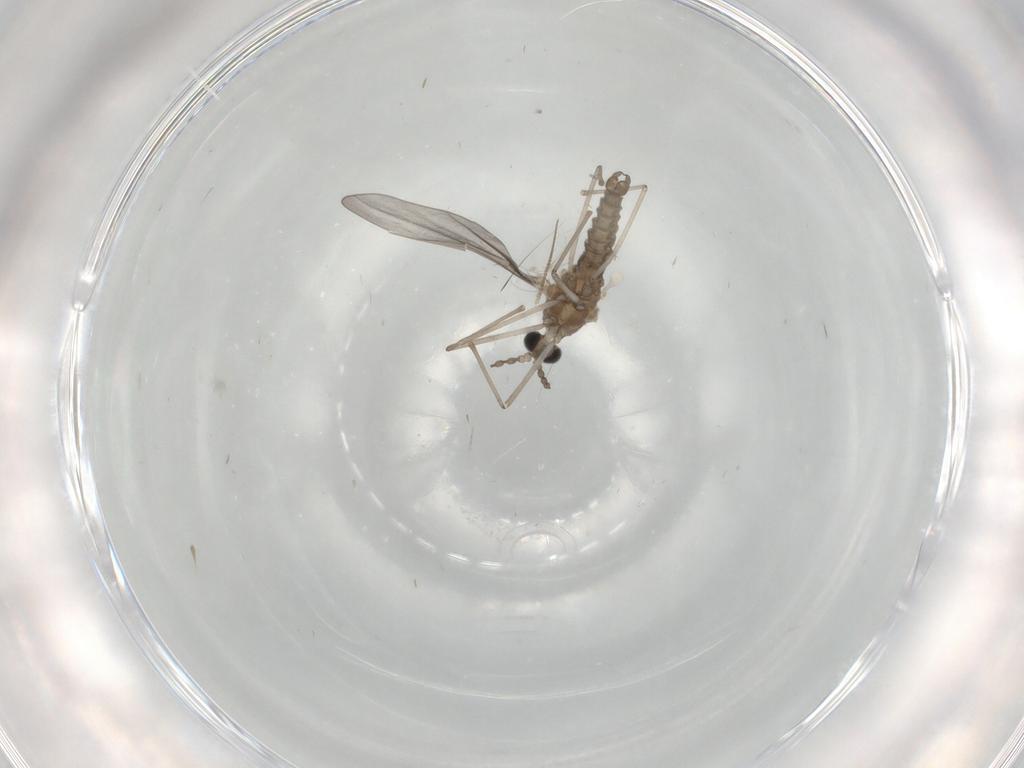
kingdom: Animalia
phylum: Arthropoda
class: Insecta
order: Diptera
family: Chironomidae
